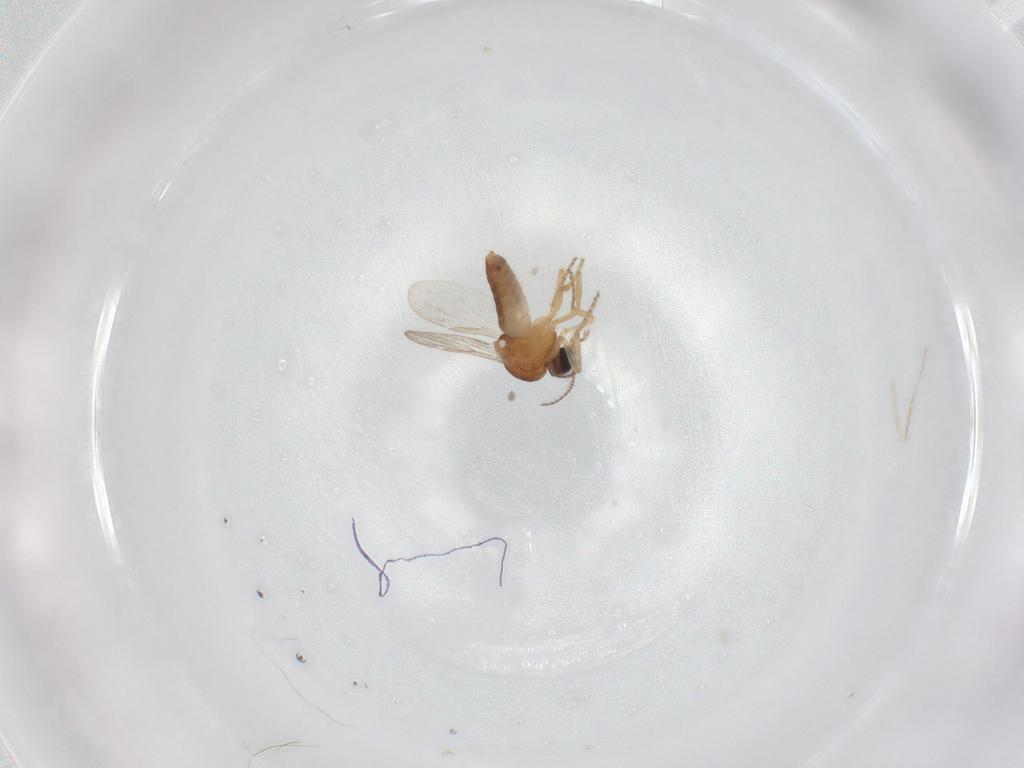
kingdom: Animalia
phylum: Arthropoda
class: Insecta
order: Diptera
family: Ceratopogonidae
